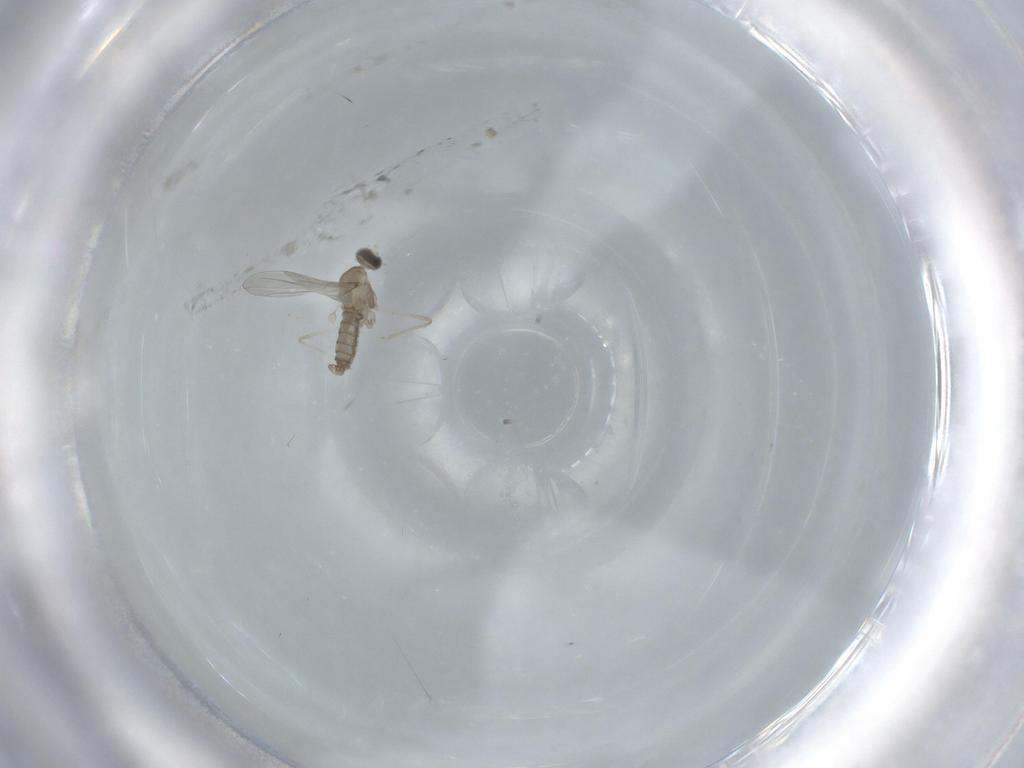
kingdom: Animalia
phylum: Arthropoda
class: Insecta
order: Diptera
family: Cecidomyiidae
